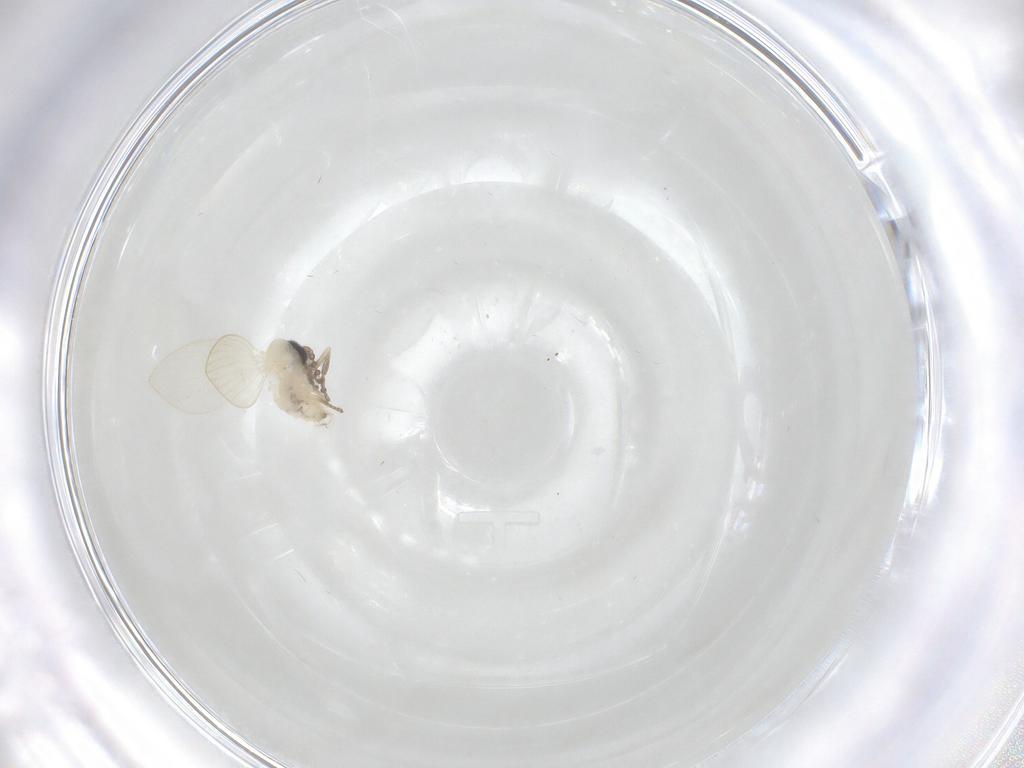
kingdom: Animalia
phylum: Arthropoda
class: Insecta
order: Diptera
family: Psychodidae
